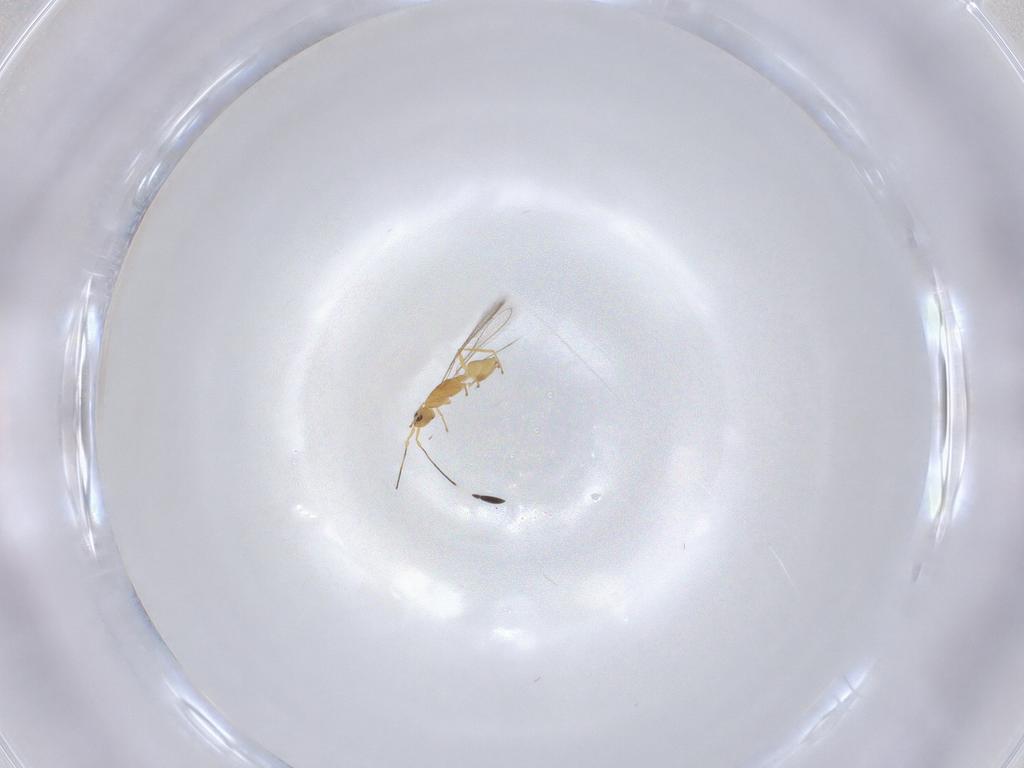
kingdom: Animalia
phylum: Arthropoda
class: Insecta
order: Hymenoptera
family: Mymaridae
